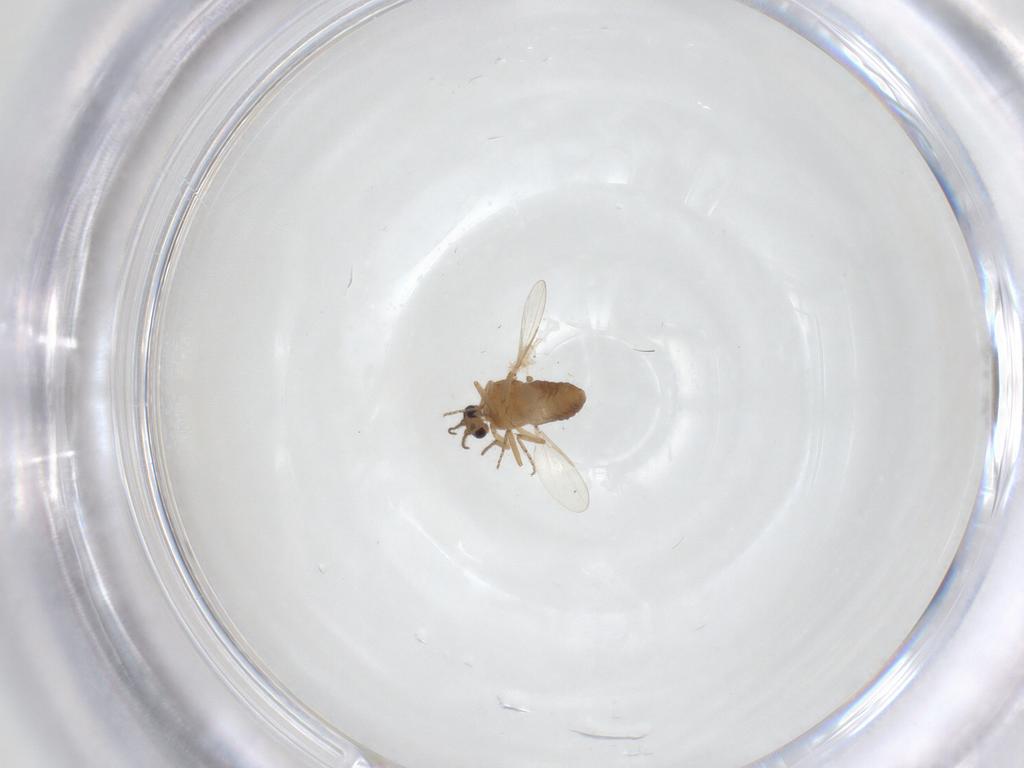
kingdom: Animalia
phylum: Arthropoda
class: Insecta
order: Diptera
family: Ceratopogonidae
